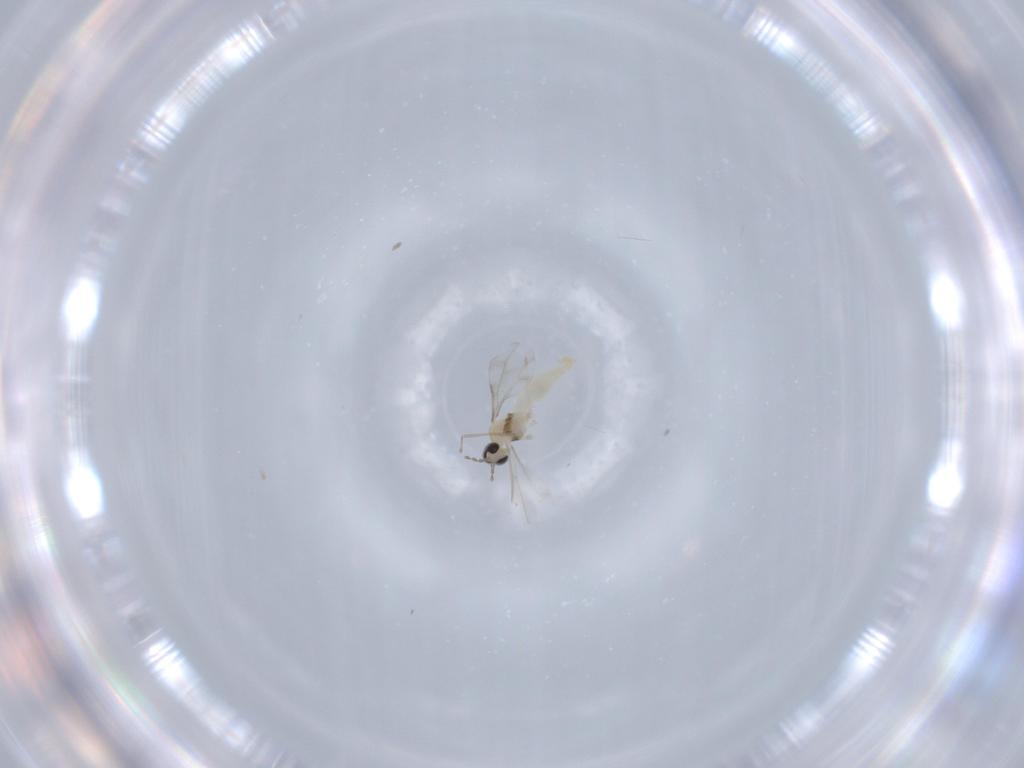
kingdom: Animalia
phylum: Arthropoda
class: Insecta
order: Diptera
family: Cecidomyiidae
